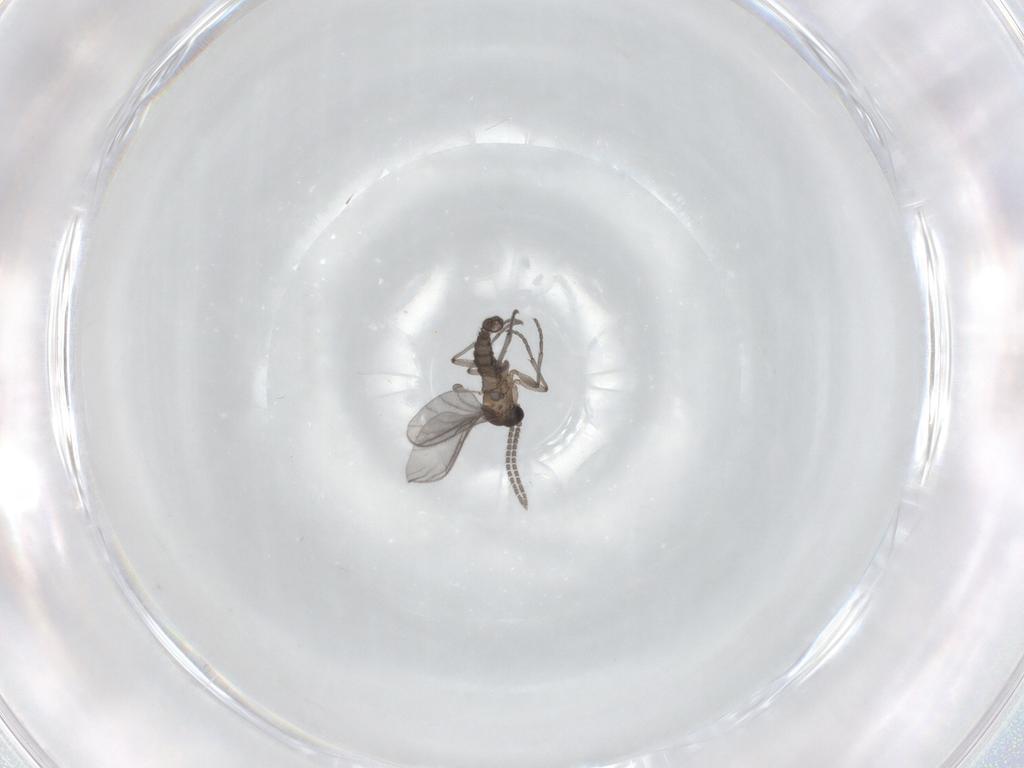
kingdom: Animalia
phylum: Arthropoda
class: Insecta
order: Diptera
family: Sciaridae
